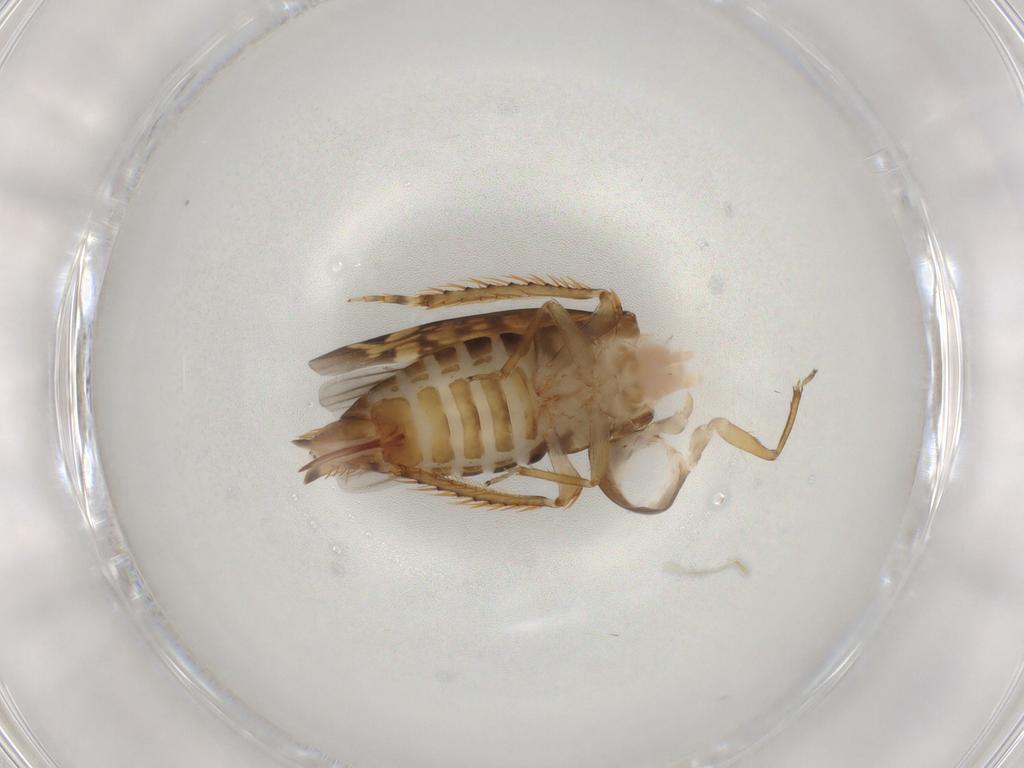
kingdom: Animalia
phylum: Arthropoda
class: Insecta
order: Hemiptera
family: Cicadellidae
